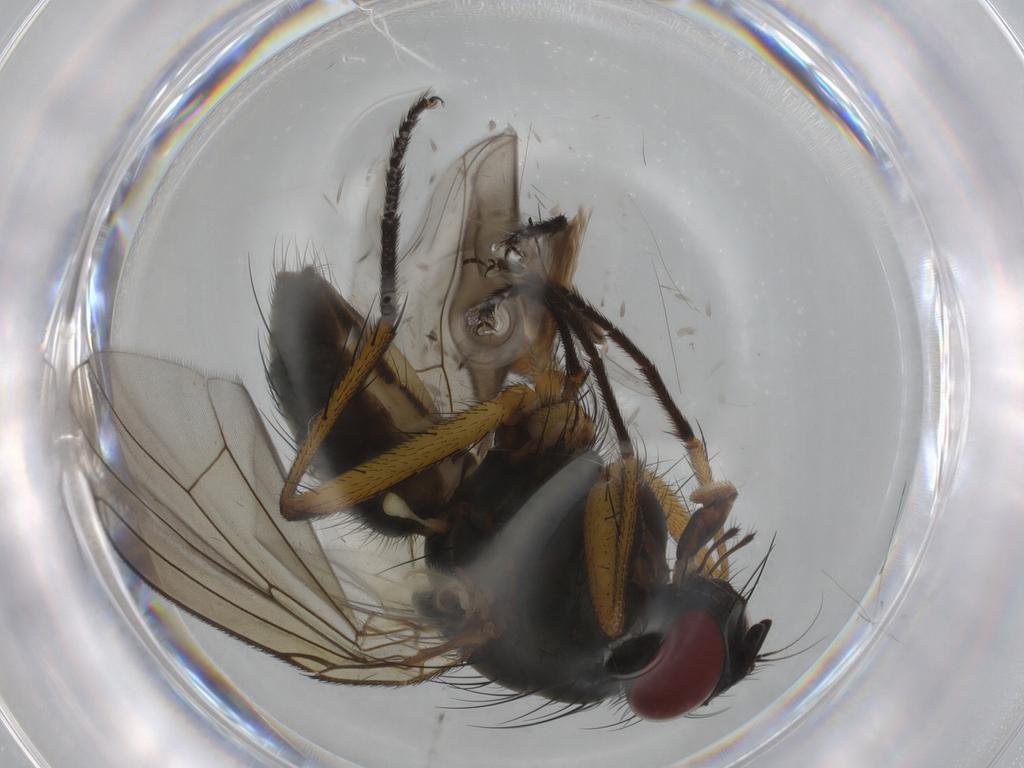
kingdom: Animalia
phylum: Arthropoda
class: Insecta
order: Diptera
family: Muscidae
